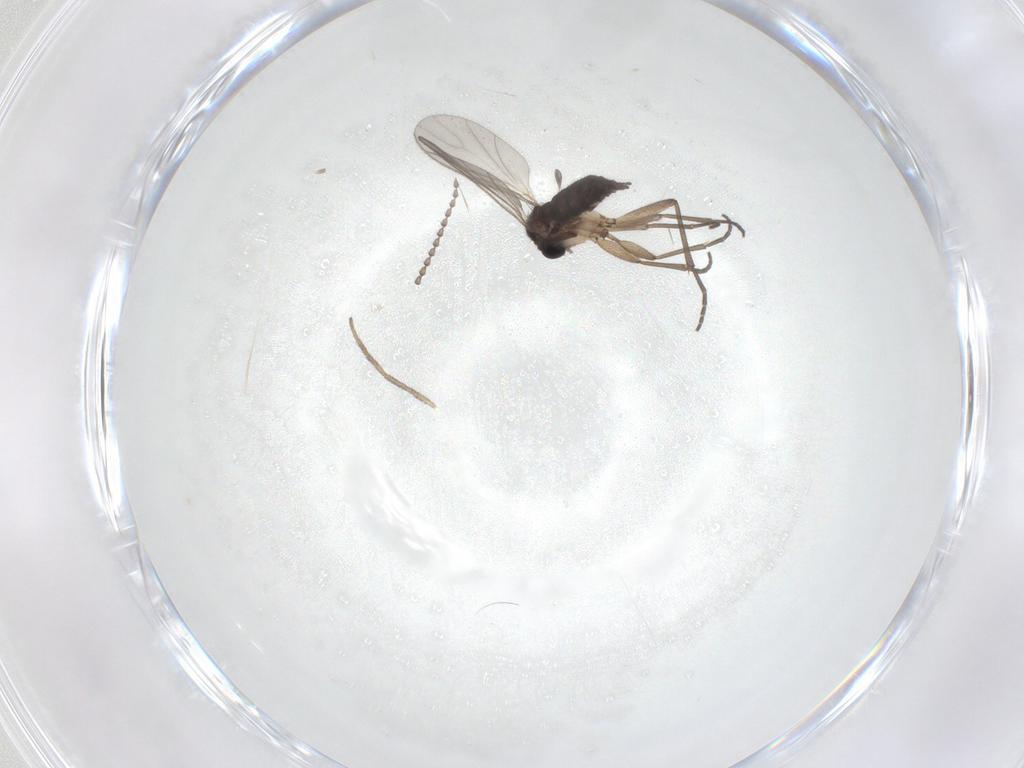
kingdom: Animalia
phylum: Arthropoda
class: Insecta
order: Diptera
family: Sciaridae
